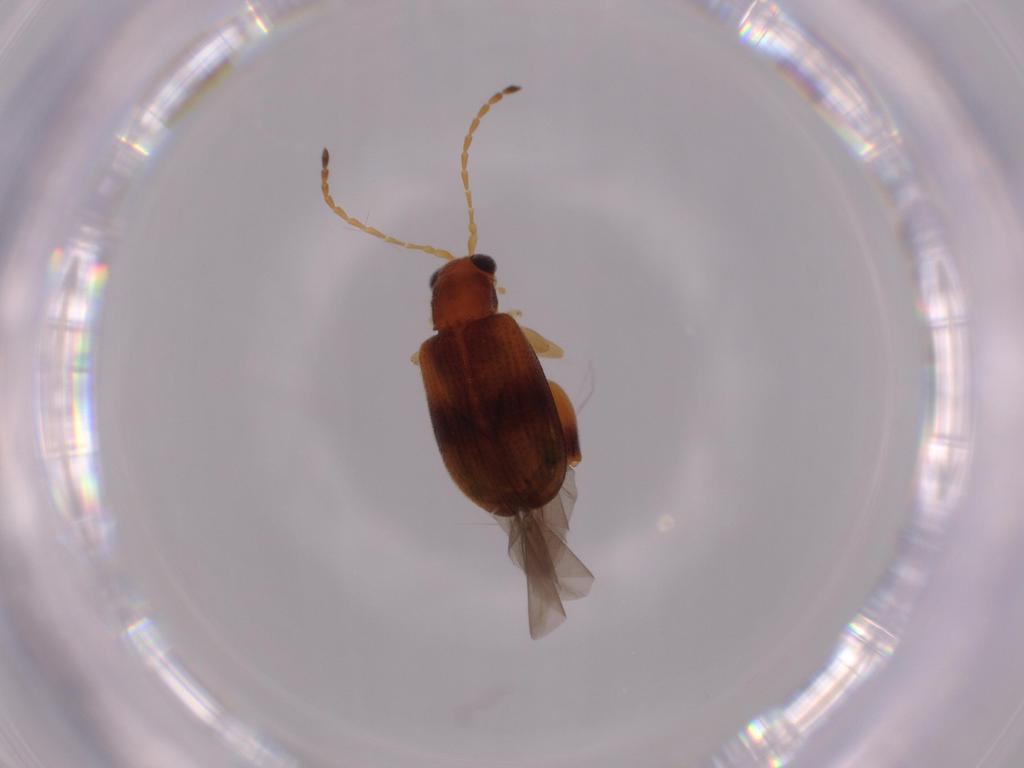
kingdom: Animalia
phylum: Arthropoda
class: Insecta
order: Coleoptera
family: Chrysomelidae
